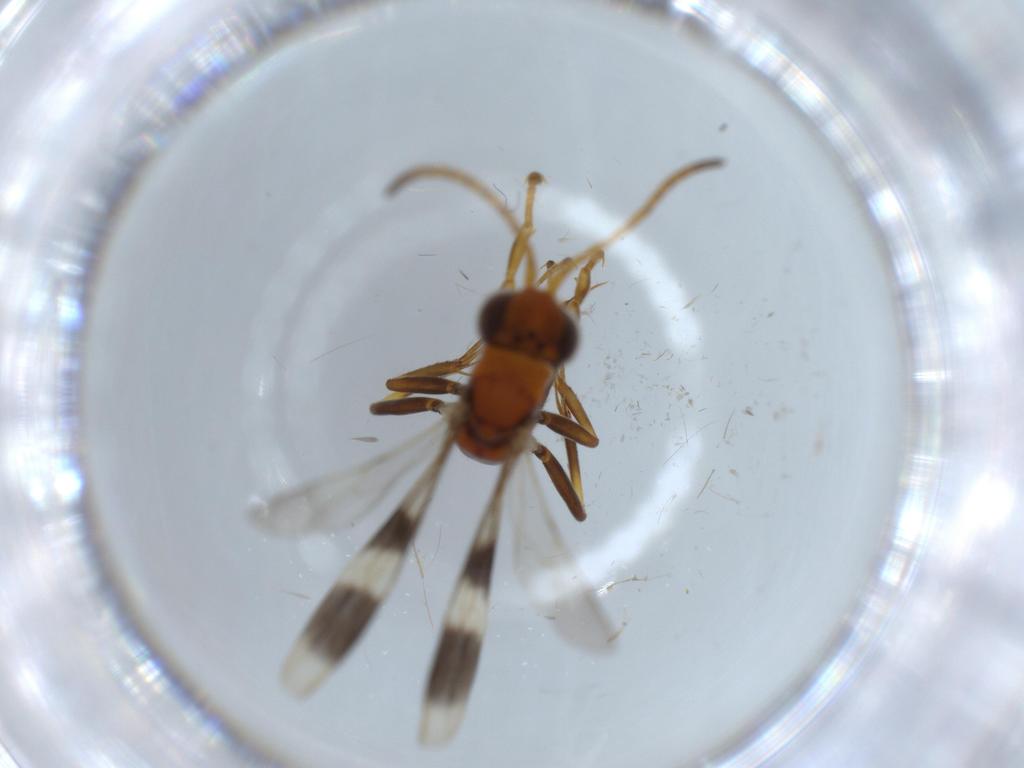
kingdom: Animalia
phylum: Arthropoda
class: Insecta
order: Hymenoptera
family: Pompilidae
